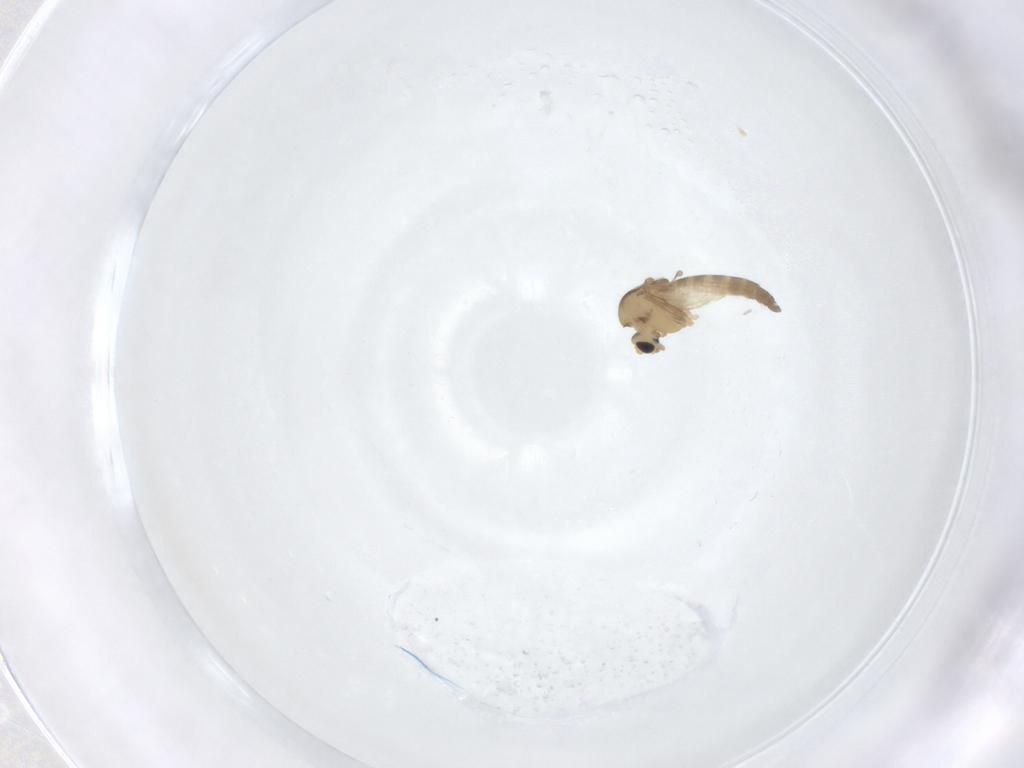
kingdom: Animalia
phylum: Arthropoda
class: Insecta
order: Diptera
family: Chironomidae
